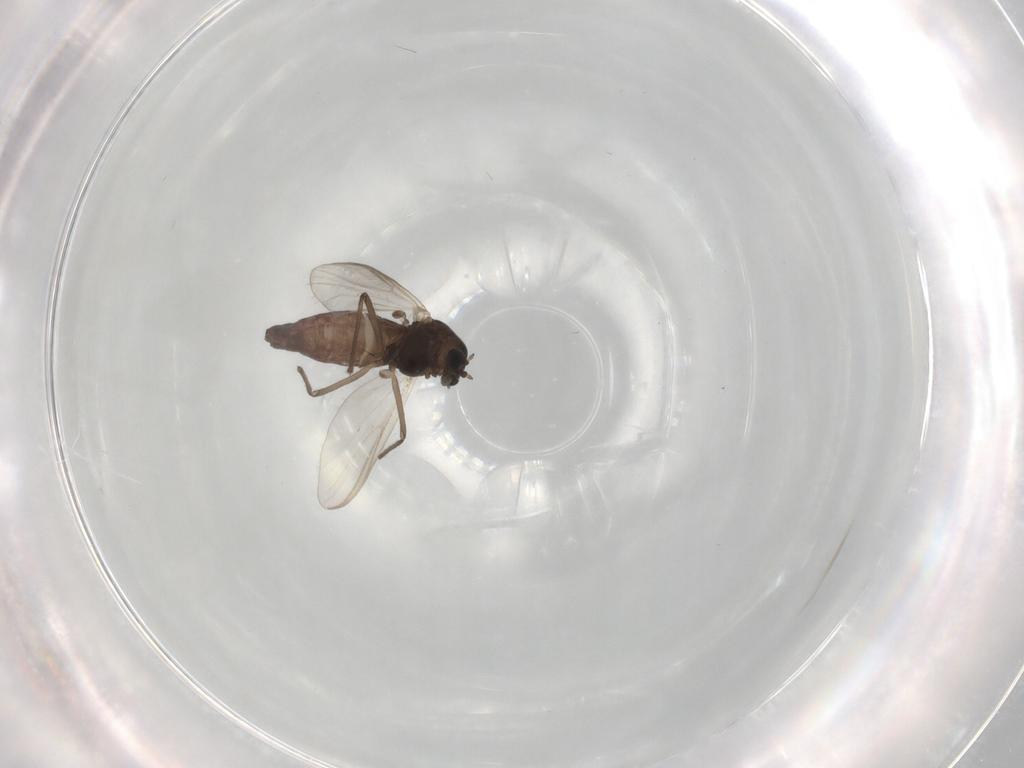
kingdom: Animalia
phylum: Arthropoda
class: Insecta
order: Diptera
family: Chironomidae
